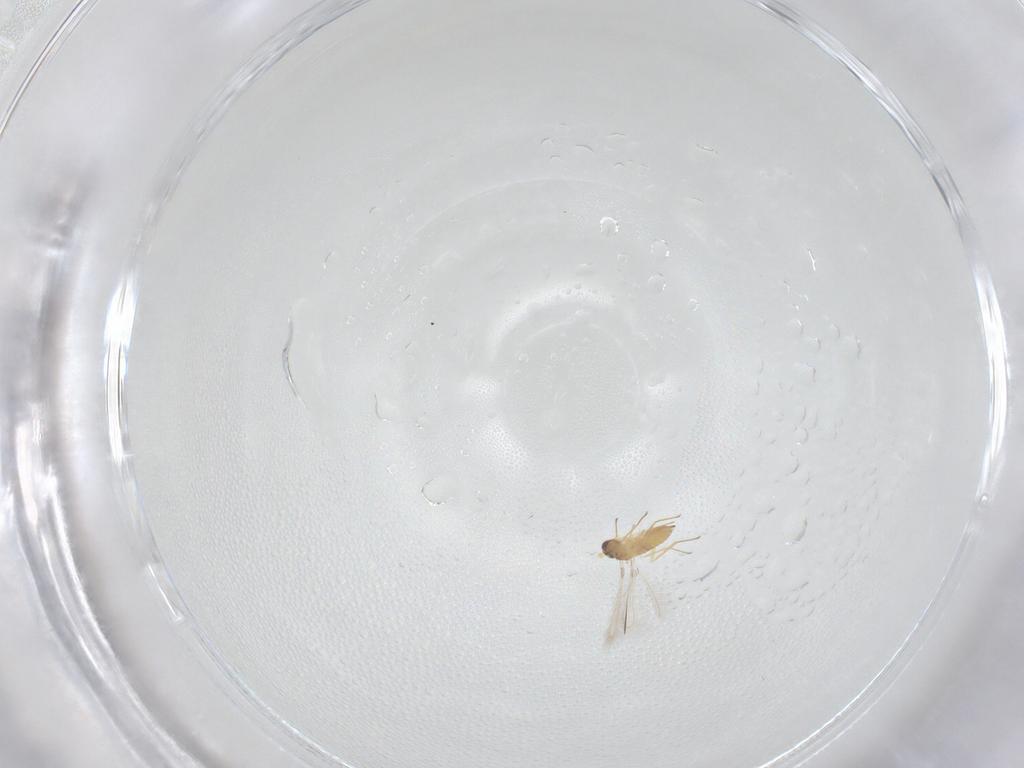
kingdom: Animalia
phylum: Arthropoda
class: Insecta
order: Hymenoptera
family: Mymaridae
